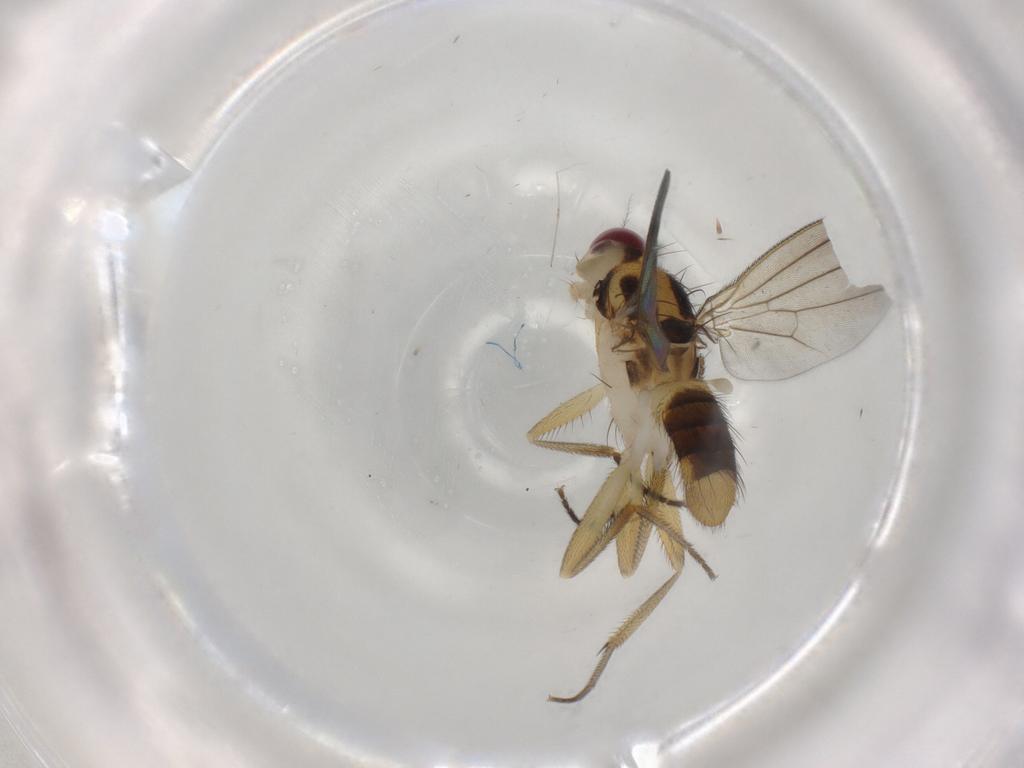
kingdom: Animalia
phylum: Arthropoda
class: Insecta
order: Diptera
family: Clusiidae
